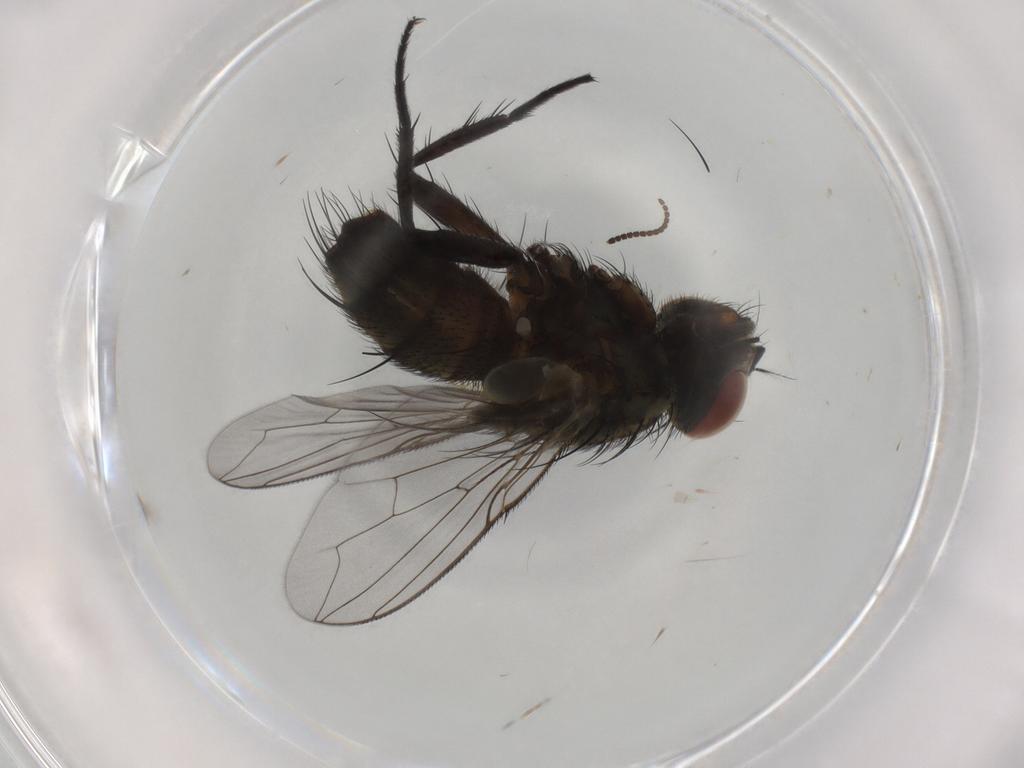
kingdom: Animalia
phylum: Arthropoda
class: Insecta
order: Diptera
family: Sarcophagidae
